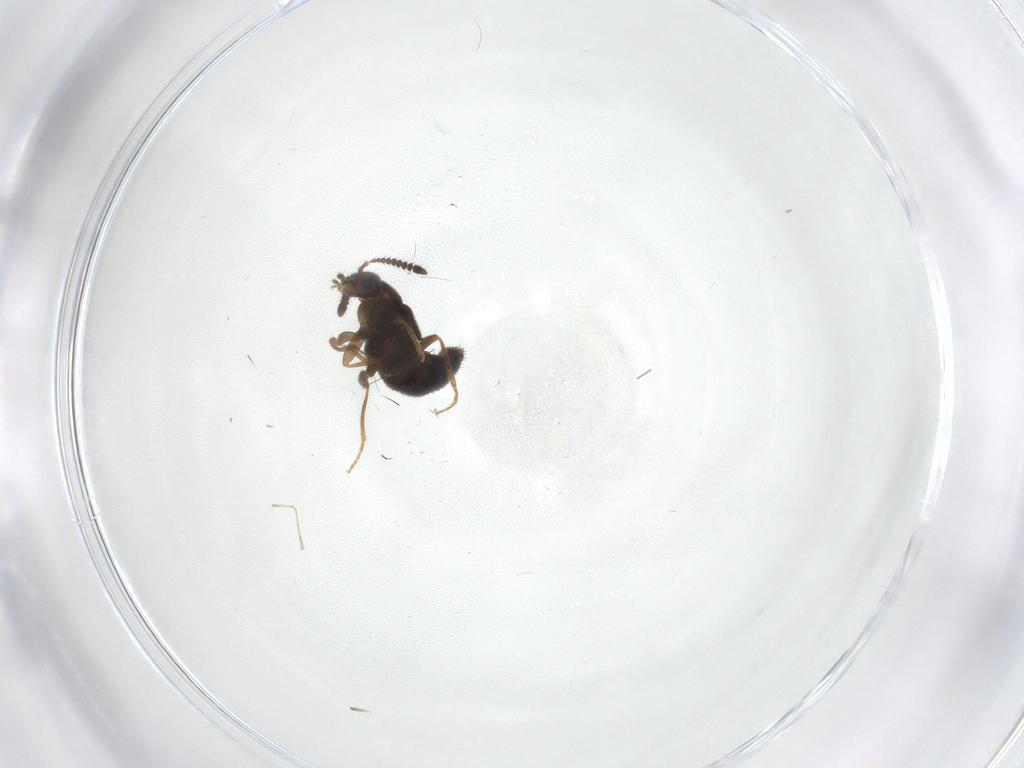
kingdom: Animalia
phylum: Arthropoda
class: Insecta
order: Coleoptera
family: Staphylinidae
